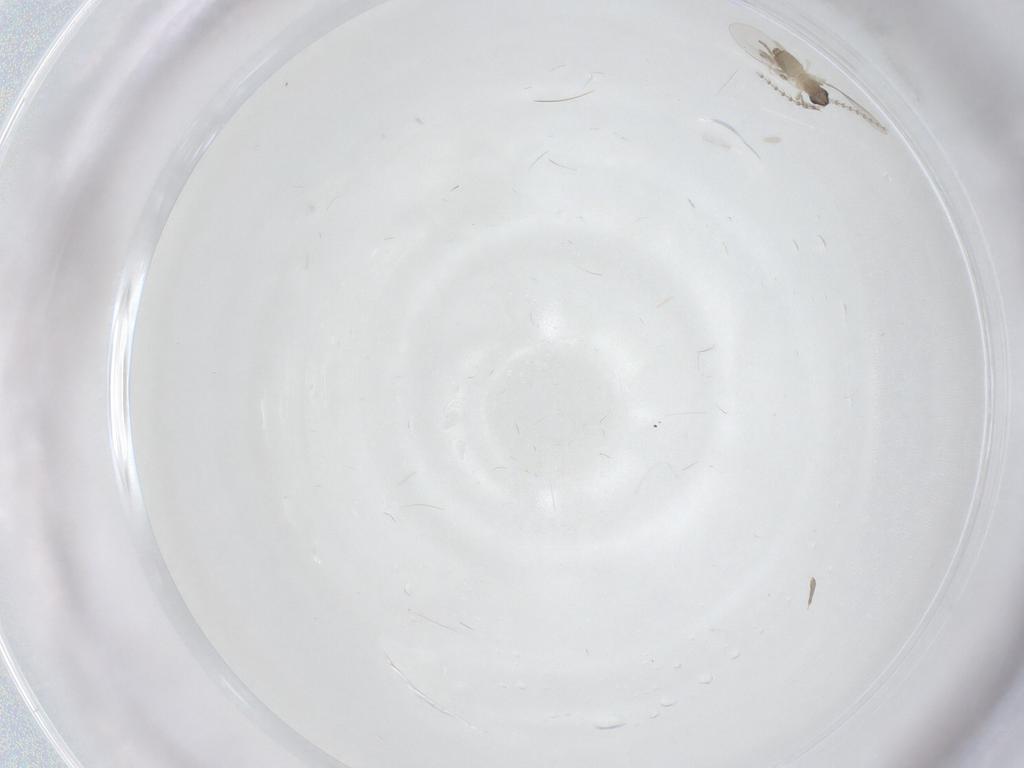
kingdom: Animalia
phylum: Arthropoda
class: Insecta
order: Diptera
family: Cecidomyiidae
